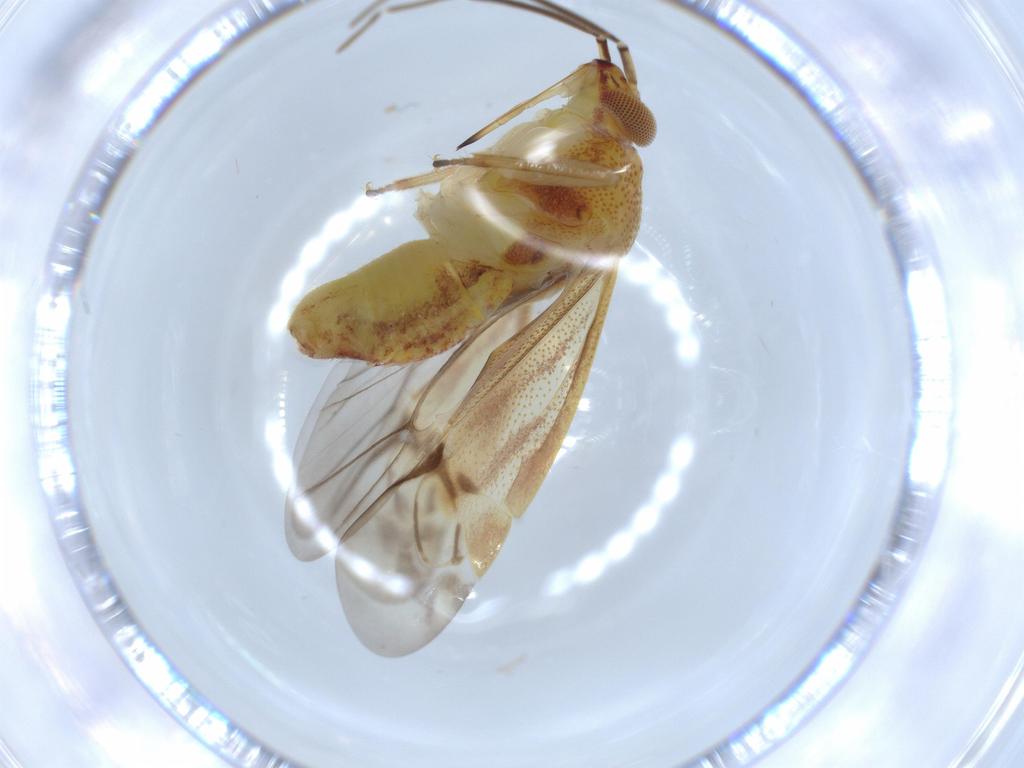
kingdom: Animalia
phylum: Arthropoda
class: Insecta
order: Hemiptera
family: Miridae
